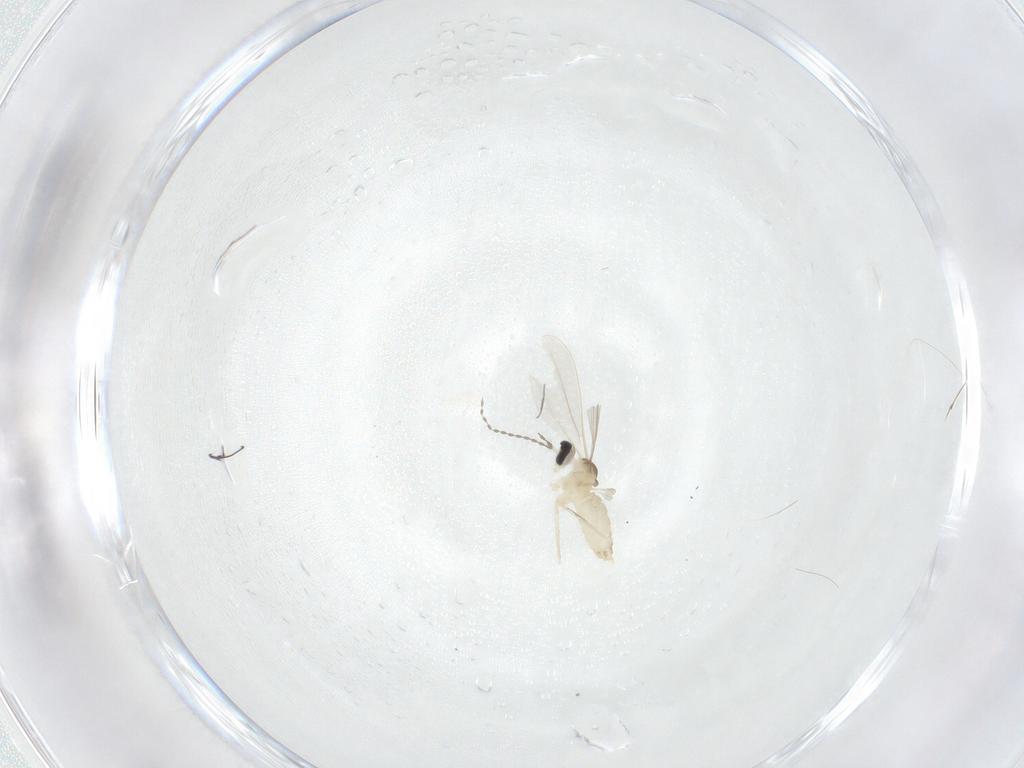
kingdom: Animalia
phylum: Arthropoda
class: Insecta
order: Diptera
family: Cecidomyiidae
